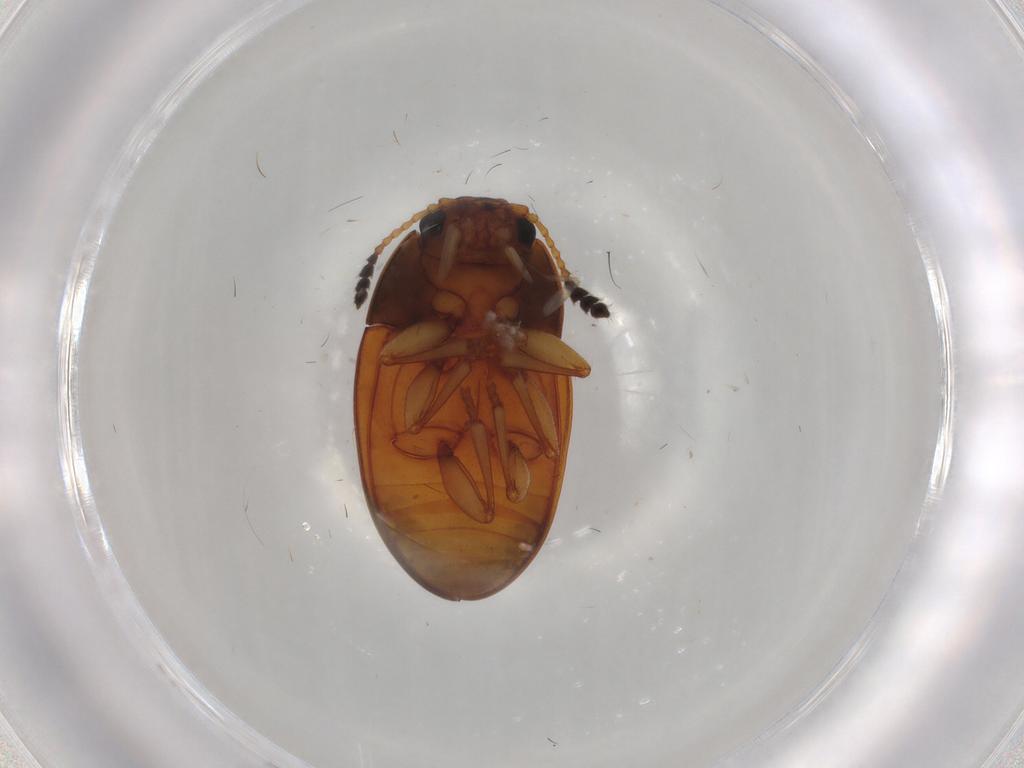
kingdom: Animalia
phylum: Arthropoda
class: Insecta
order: Coleoptera
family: Erotylidae
